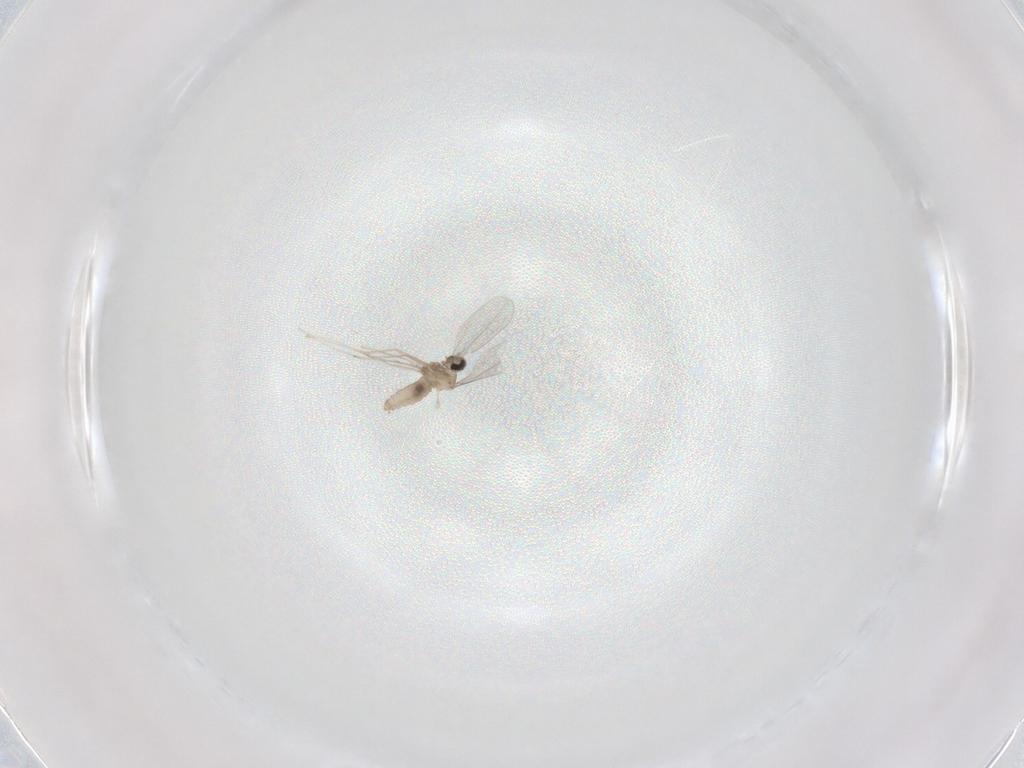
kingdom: Animalia
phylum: Arthropoda
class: Insecta
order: Diptera
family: Cecidomyiidae
